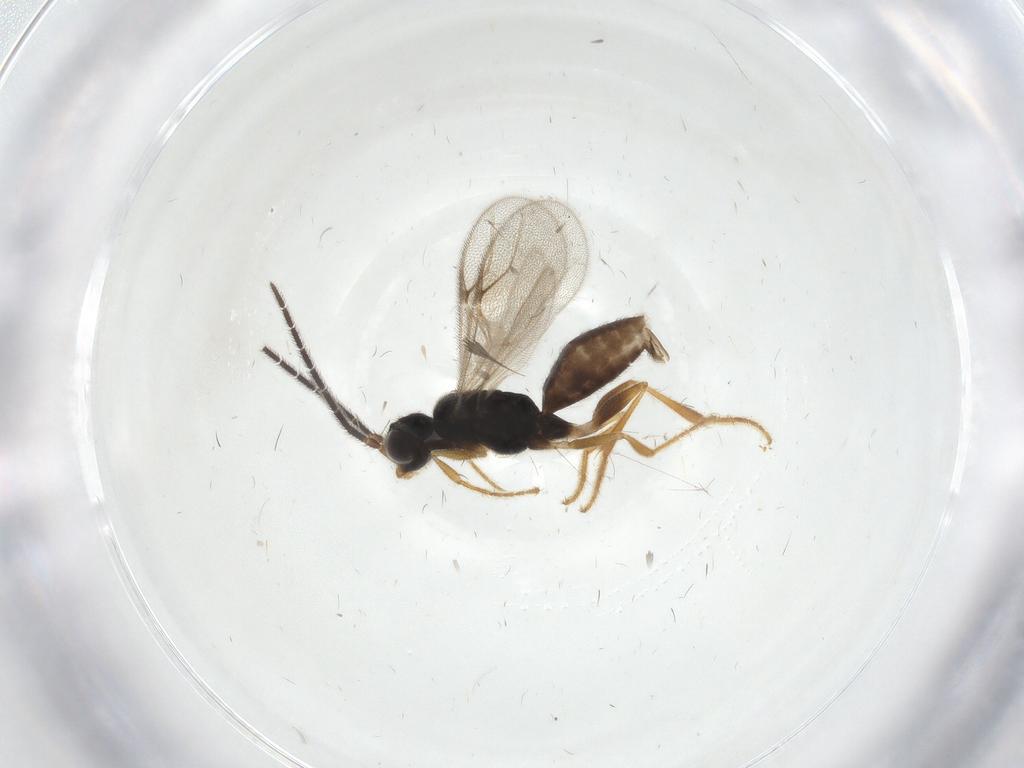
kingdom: Animalia
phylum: Arthropoda
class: Insecta
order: Hymenoptera
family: Dryinidae
